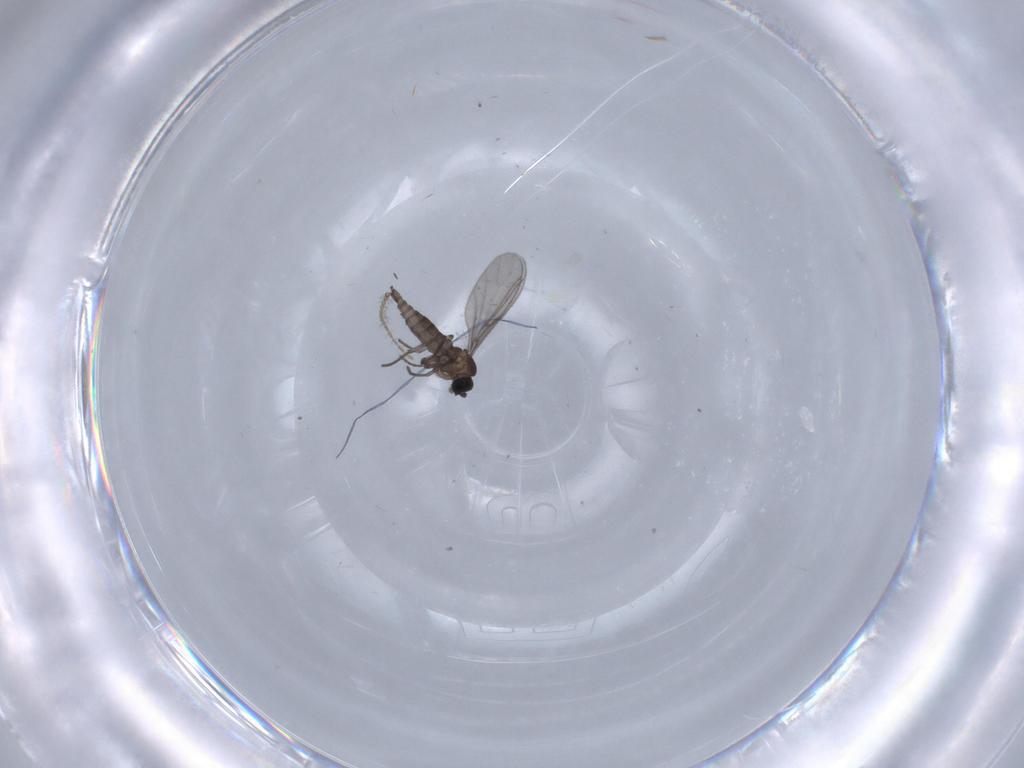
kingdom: Animalia
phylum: Arthropoda
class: Insecta
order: Diptera
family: Ceratopogonidae
